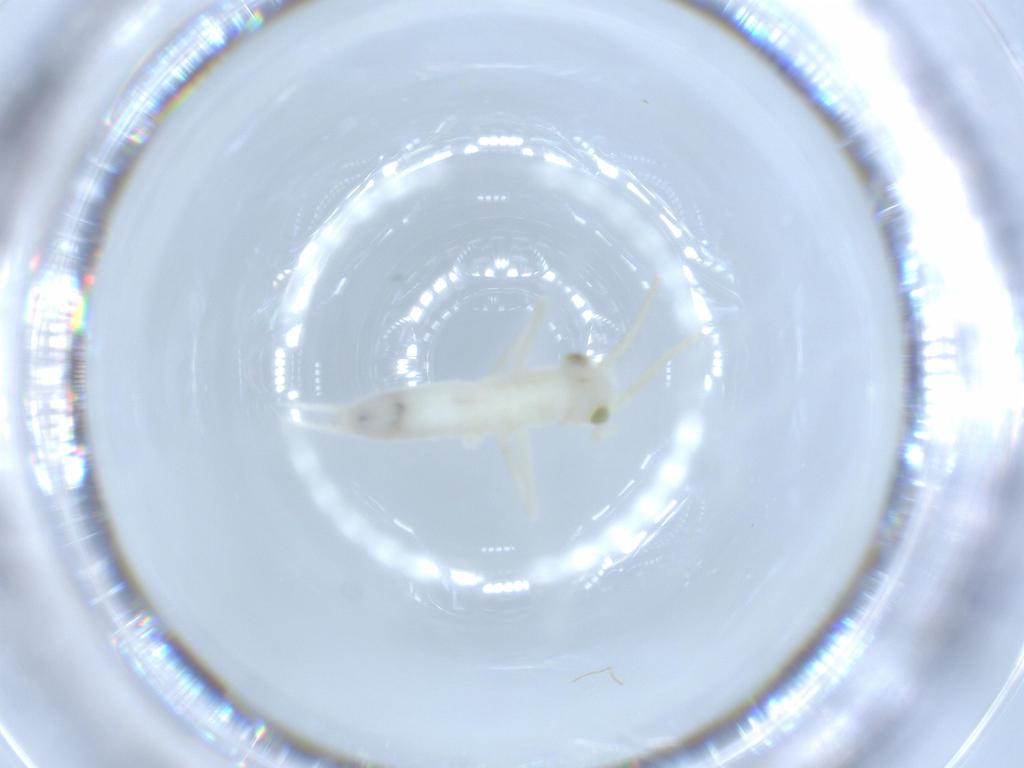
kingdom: Animalia
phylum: Arthropoda
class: Insecta
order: Orthoptera
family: Trigonidiidae
